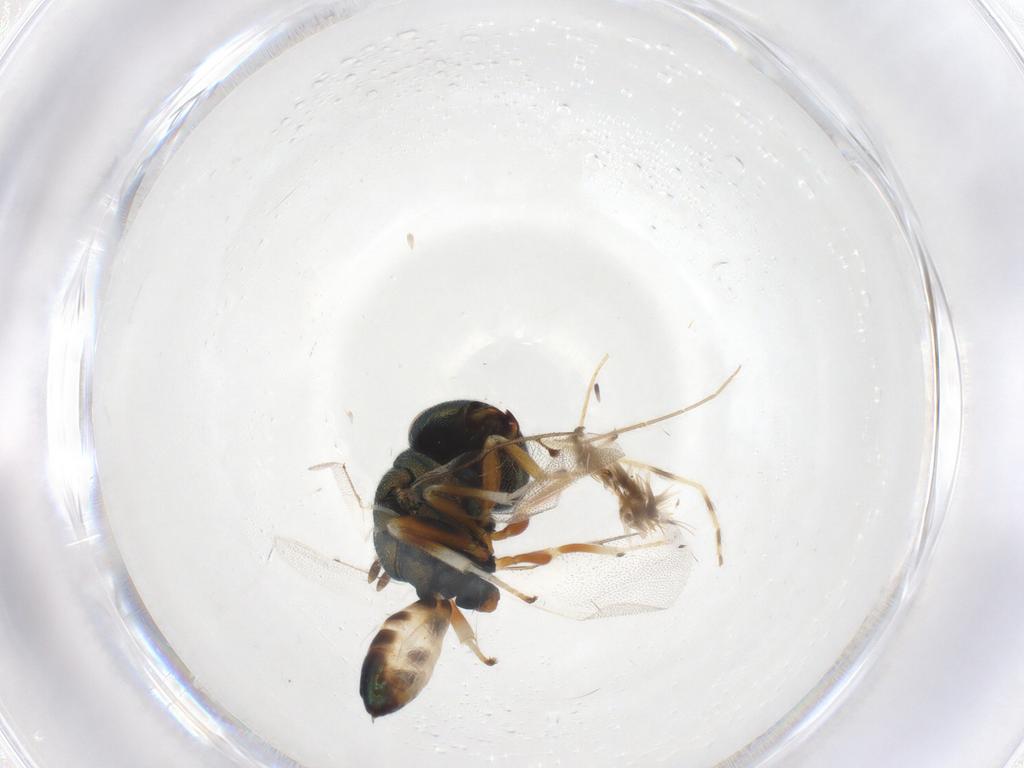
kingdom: Animalia
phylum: Arthropoda
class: Insecta
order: Hymenoptera
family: Pteromalidae
